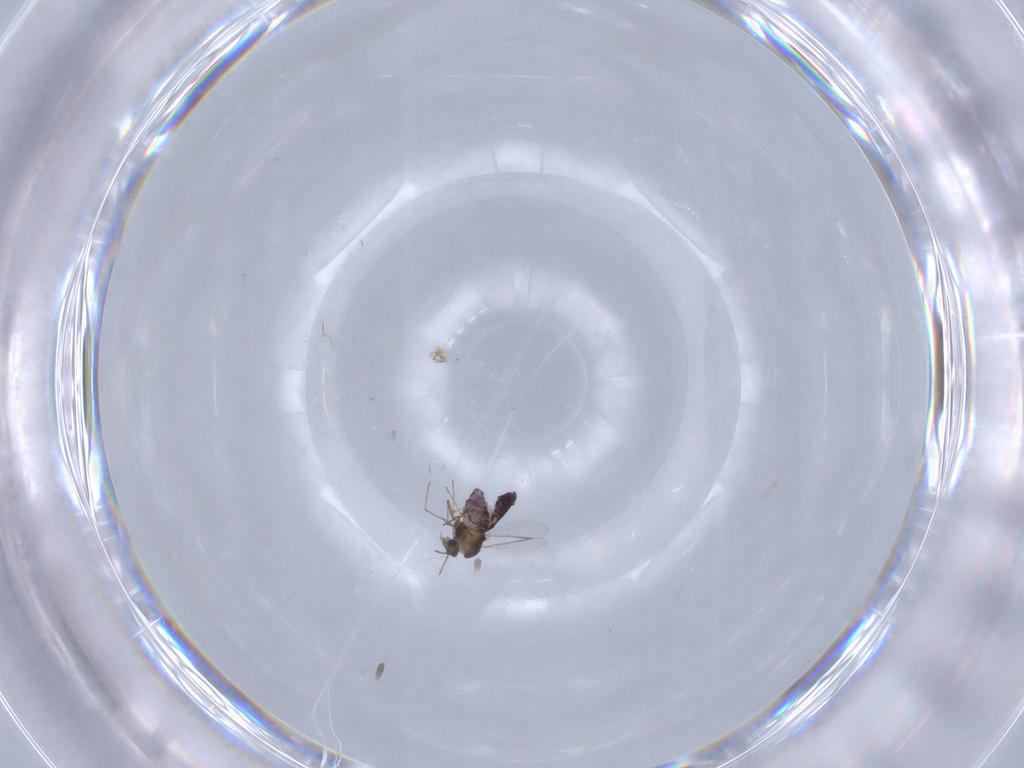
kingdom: Animalia
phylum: Arthropoda
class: Insecta
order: Diptera
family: Chironomidae
